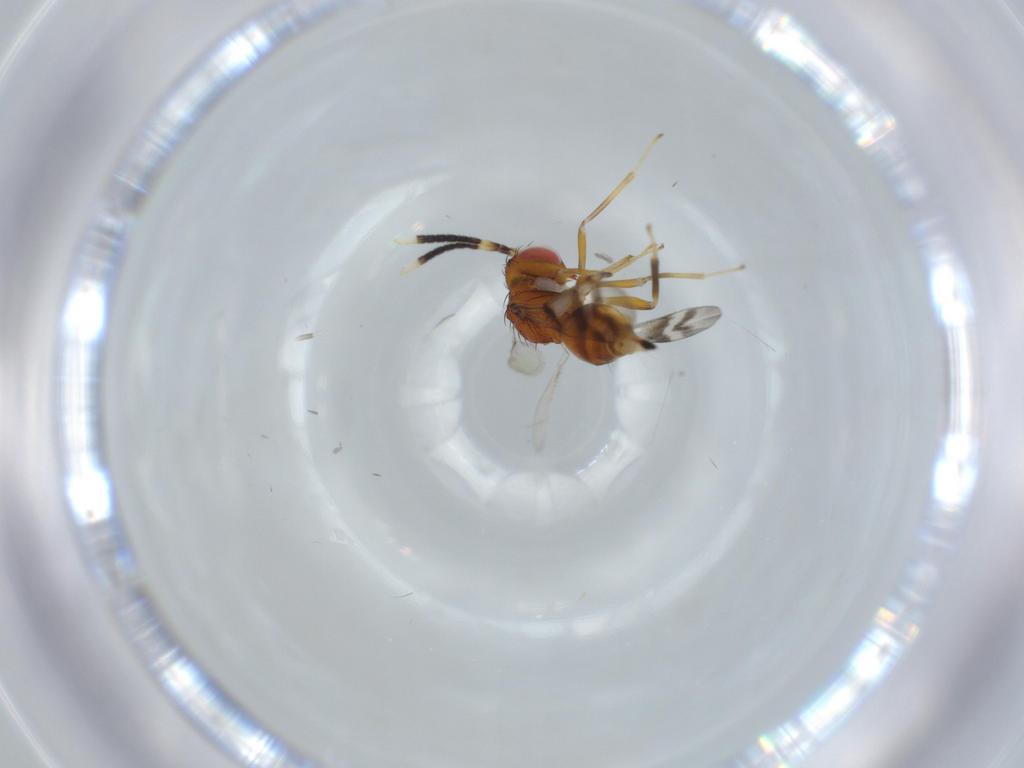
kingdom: Animalia
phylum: Arthropoda
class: Insecta
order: Hymenoptera
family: Diparidae
